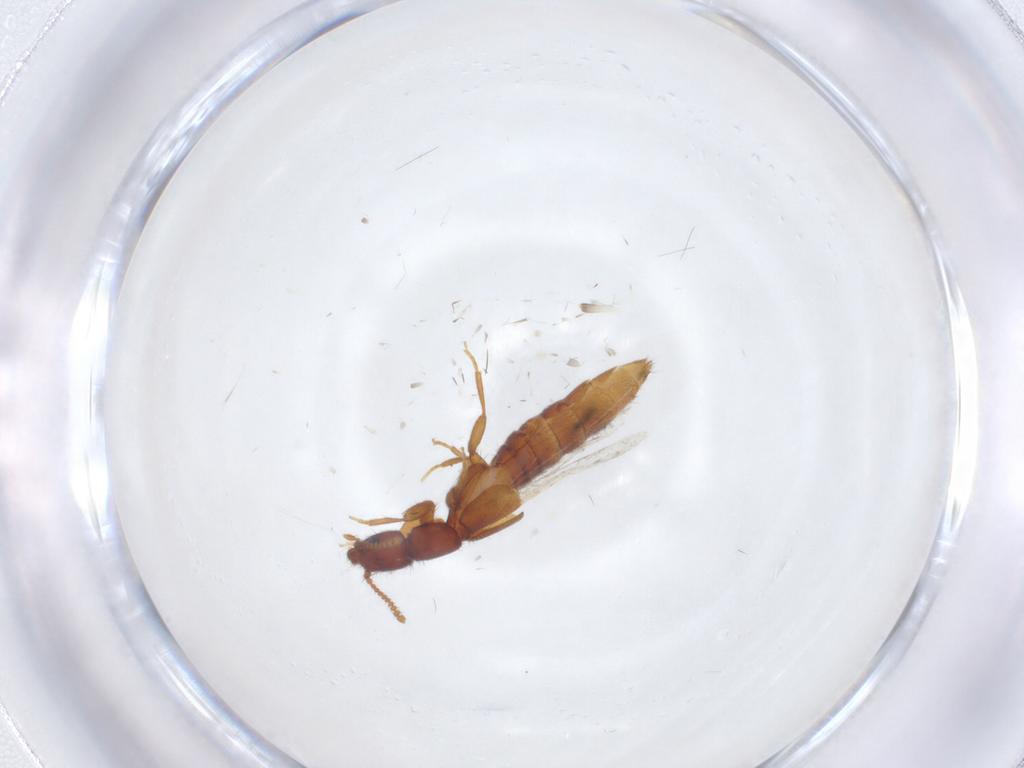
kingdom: Animalia
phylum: Arthropoda
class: Insecta
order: Coleoptera
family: Staphylinidae
